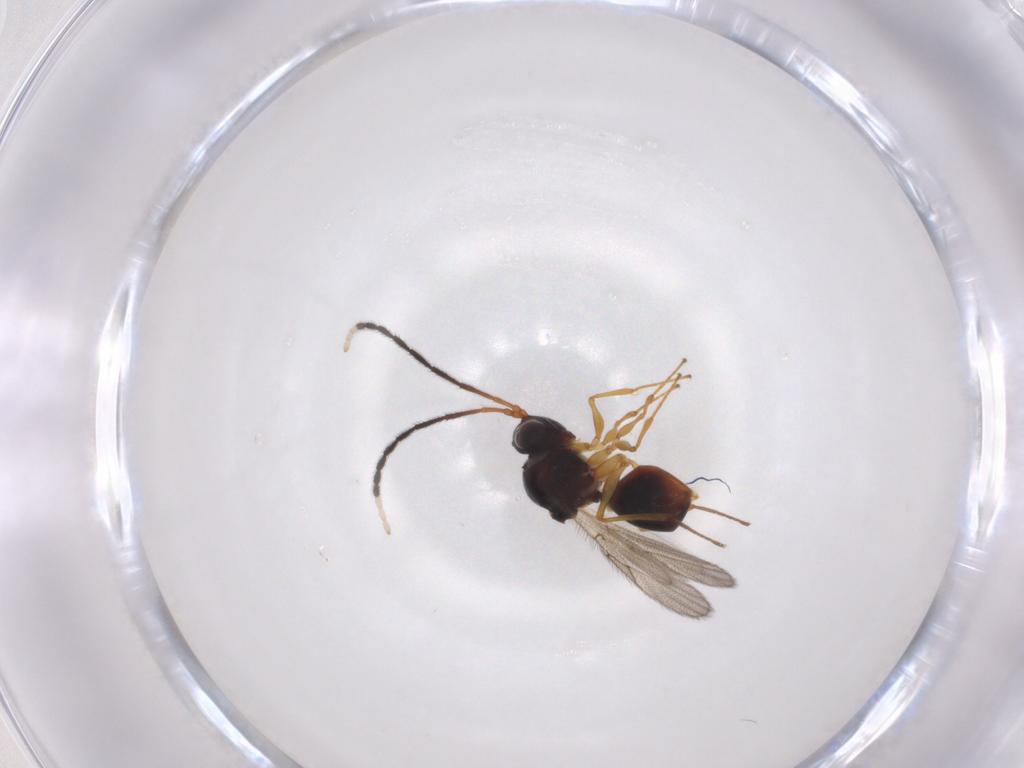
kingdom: Animalia
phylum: Arthropoda
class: Insecta
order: Hymenoptera
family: Figitidae
